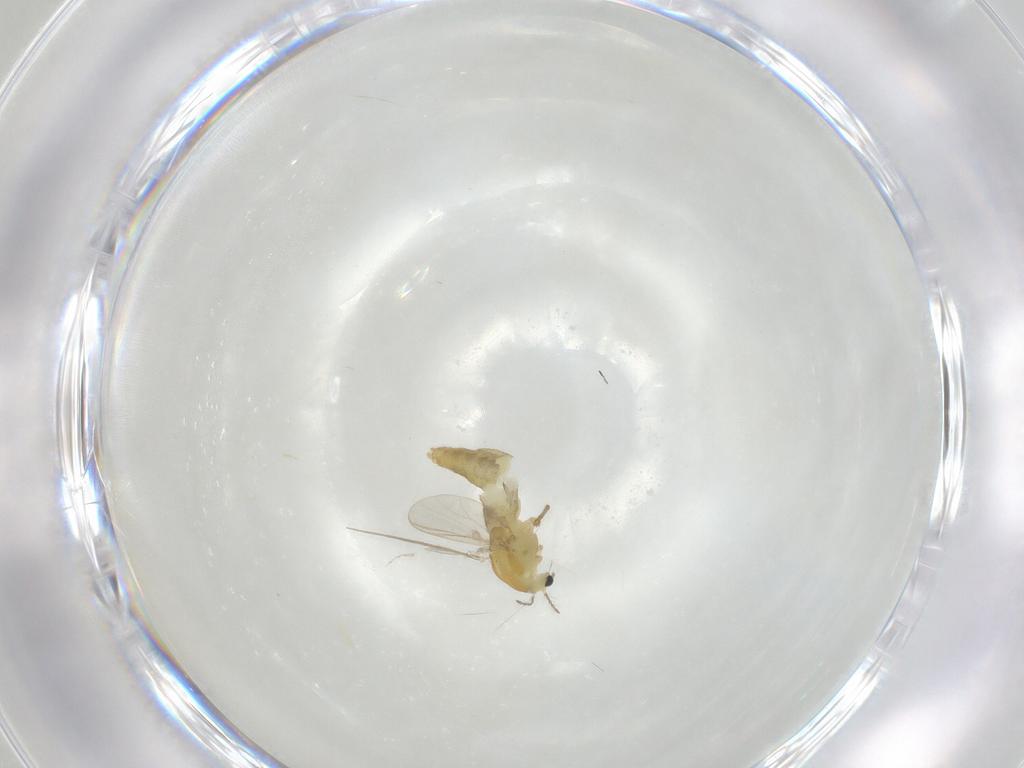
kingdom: Animalia
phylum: Arthropoda
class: Insecta
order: Diptera
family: Chironomidae
